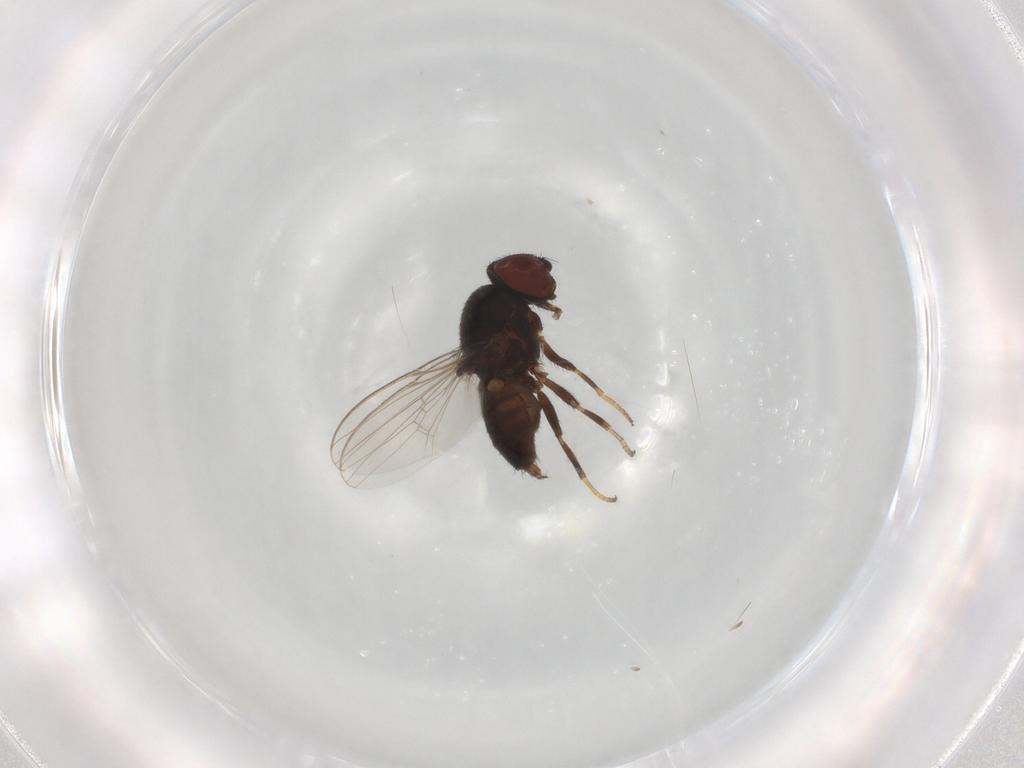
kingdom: Animalia
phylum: Arthropoda
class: Insecta
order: Diptera
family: Milichiidae
